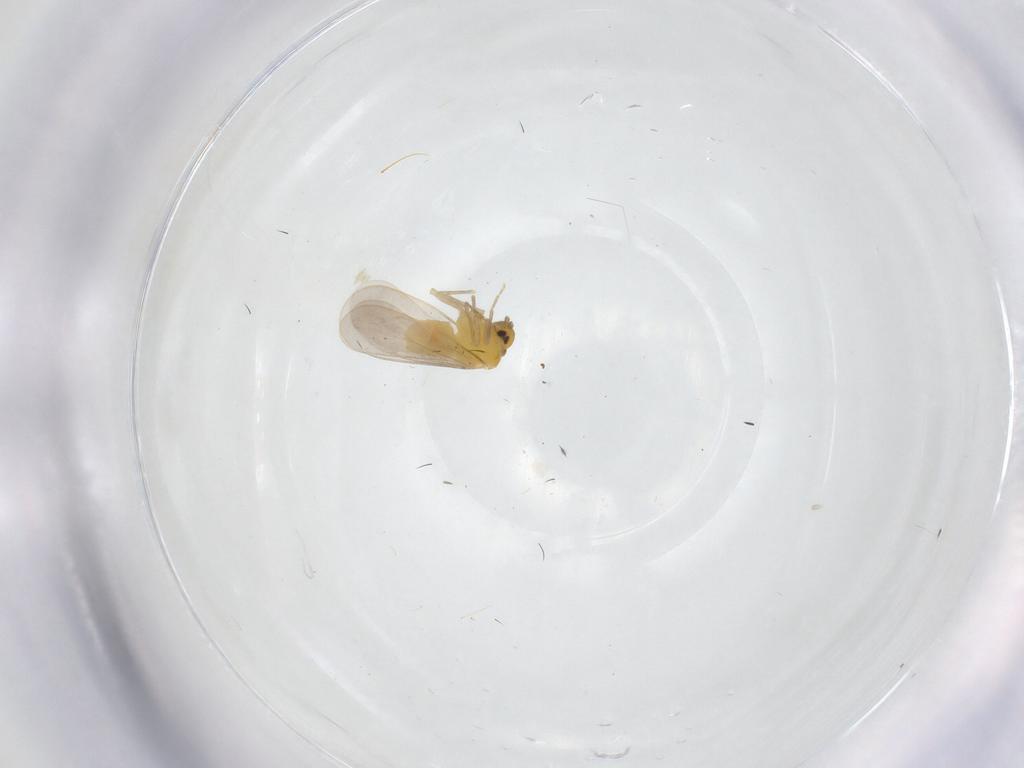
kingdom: Animalia
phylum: Arthropoda
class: Insecta
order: Hemiptera
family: Aleyrodidae
